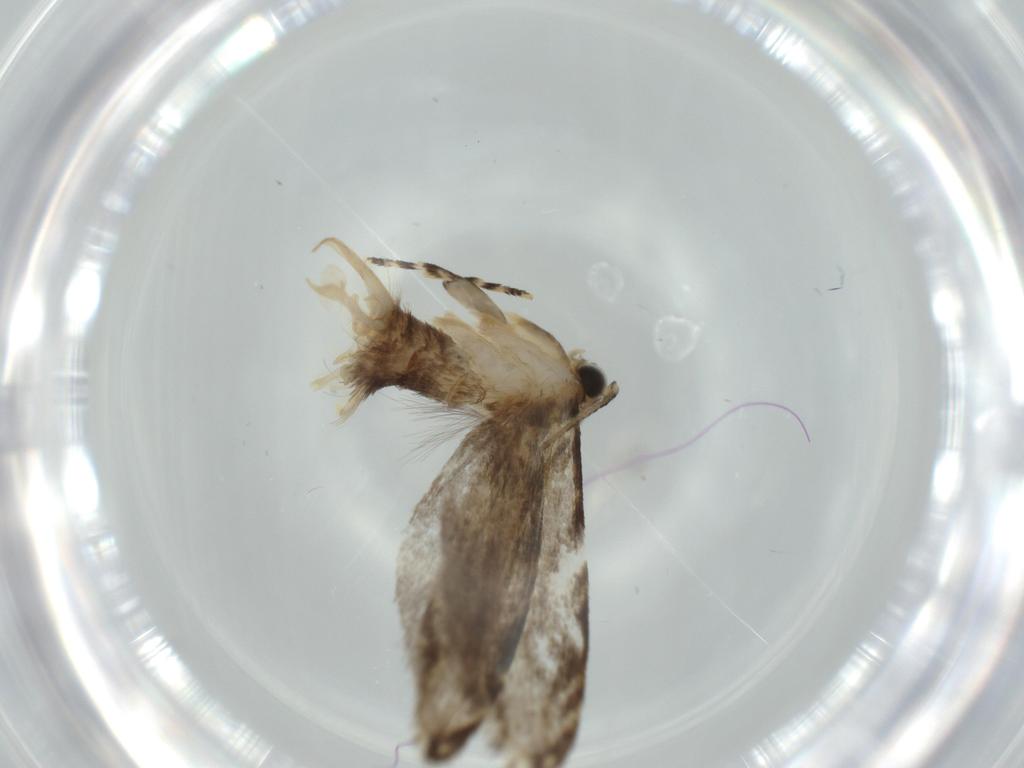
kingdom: Animalia
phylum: Arthropoda
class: Insecta
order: Lepidoptera
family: Tineidae
